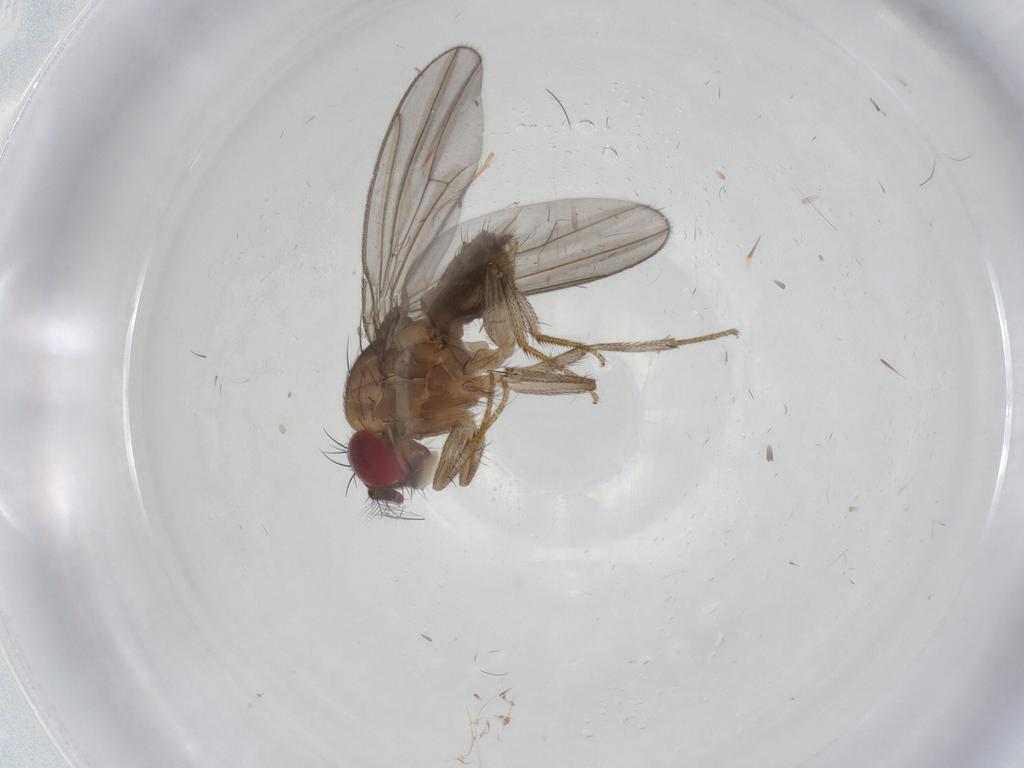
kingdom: Animalia
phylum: Arthropoda
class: Insecta
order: Diptera
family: Drosophilidae
